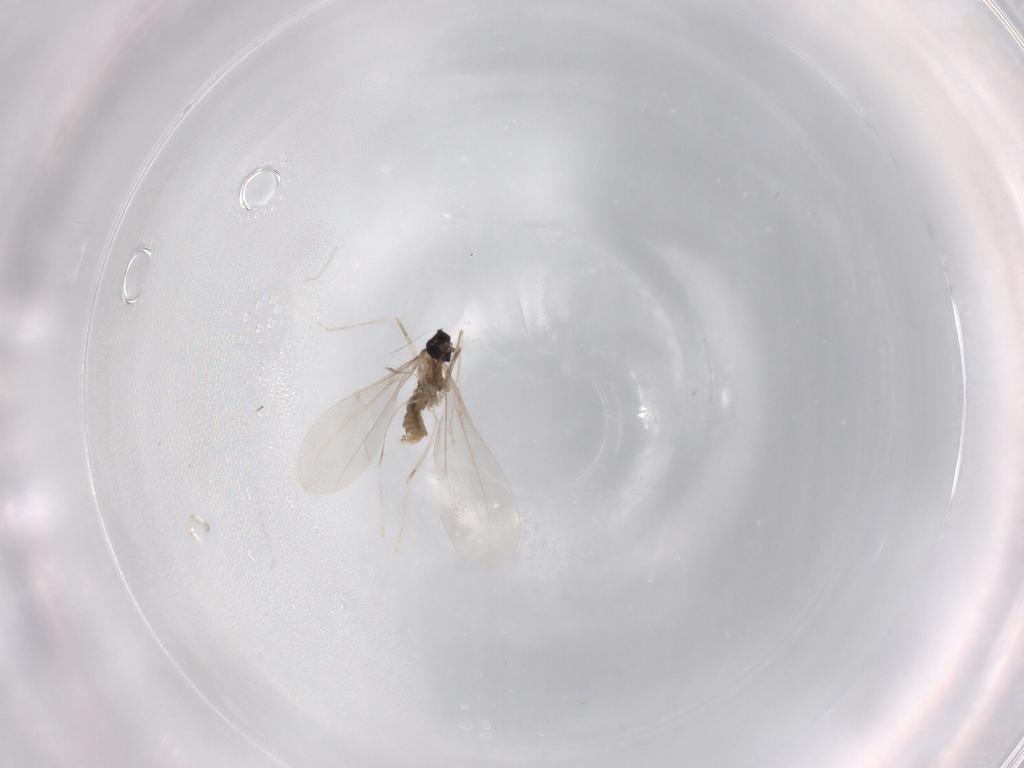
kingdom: Animalia
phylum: Arthropoda
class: Insecta
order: Diptera
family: Cecidomyiidae
